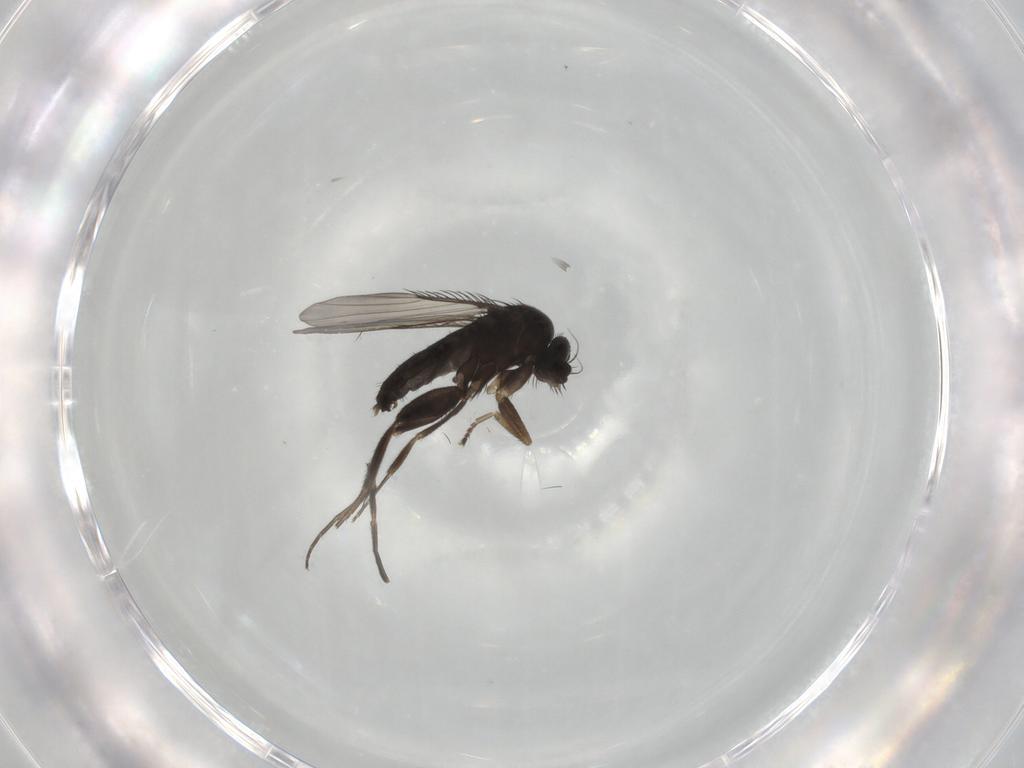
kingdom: Animalia
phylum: Arthropoda
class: Insecta
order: Diptera
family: Phoridae
